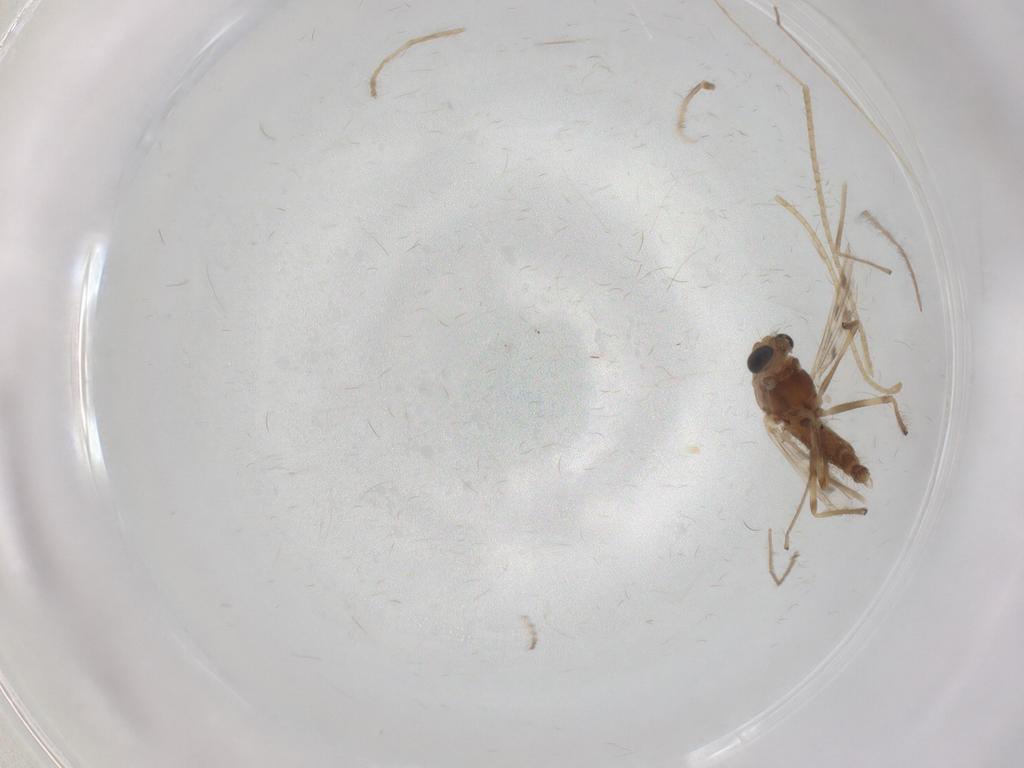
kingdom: Animalia
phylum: Arthropoda
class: Insecta
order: Diptera
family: Chironomidae
